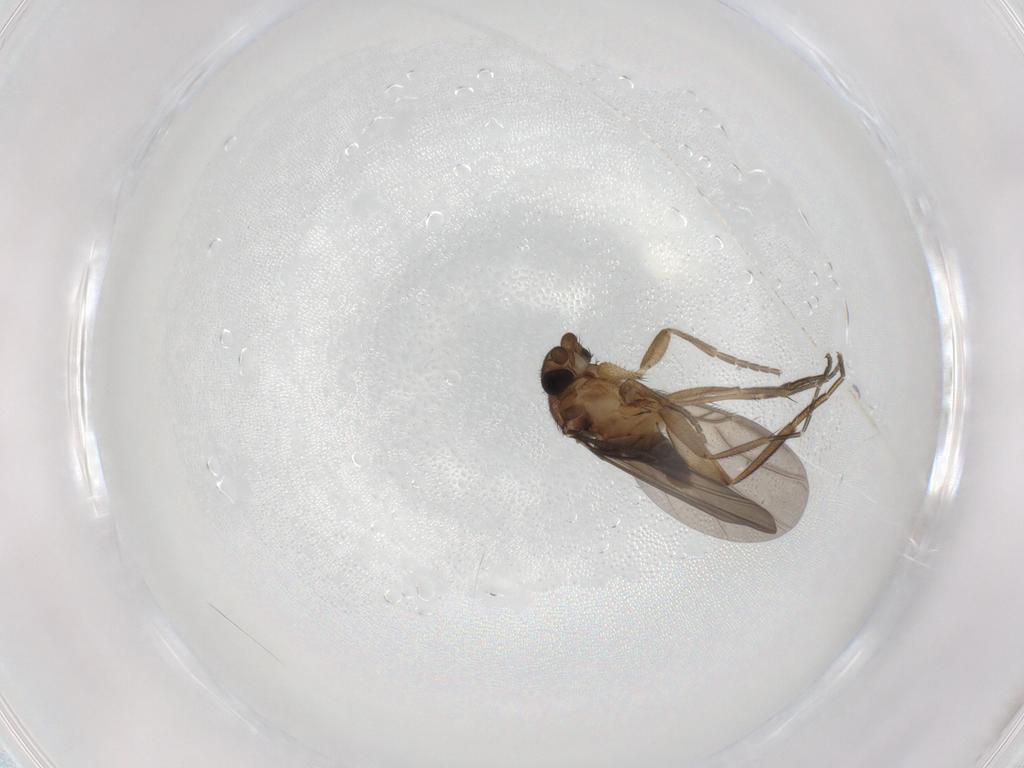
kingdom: Animalia
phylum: Arthropoda
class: Insecta
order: Diptera
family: Phoridae
